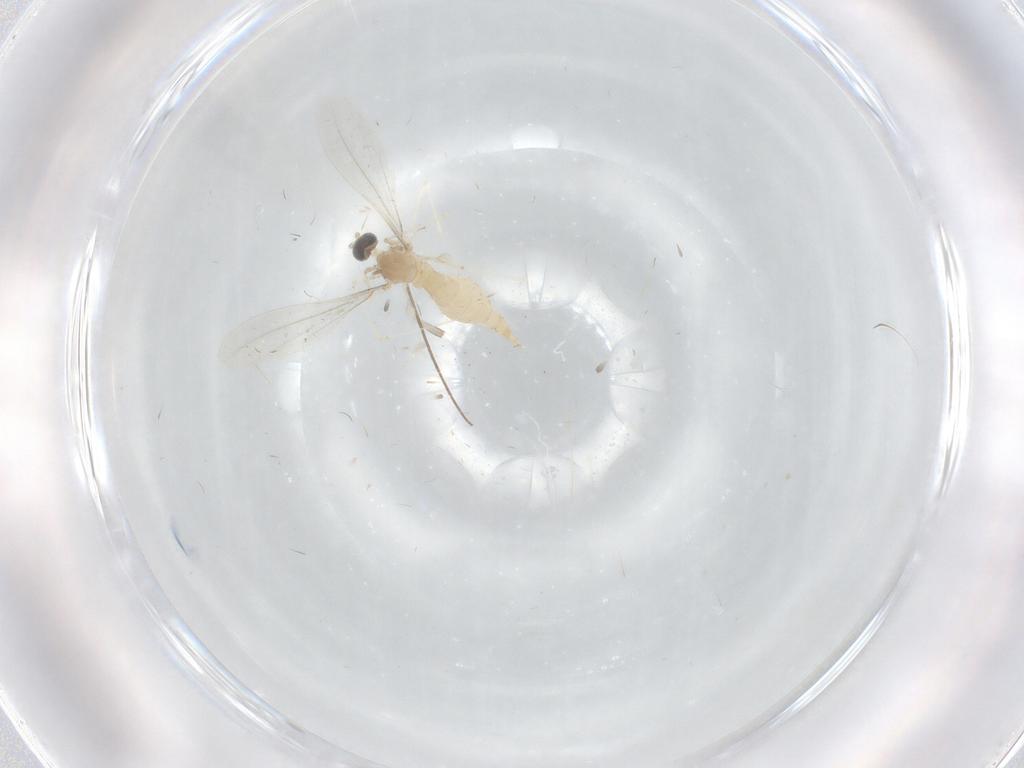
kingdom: Animalia
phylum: Arthropoda
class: Insecta
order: Diptera
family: Cecidomyiidae
